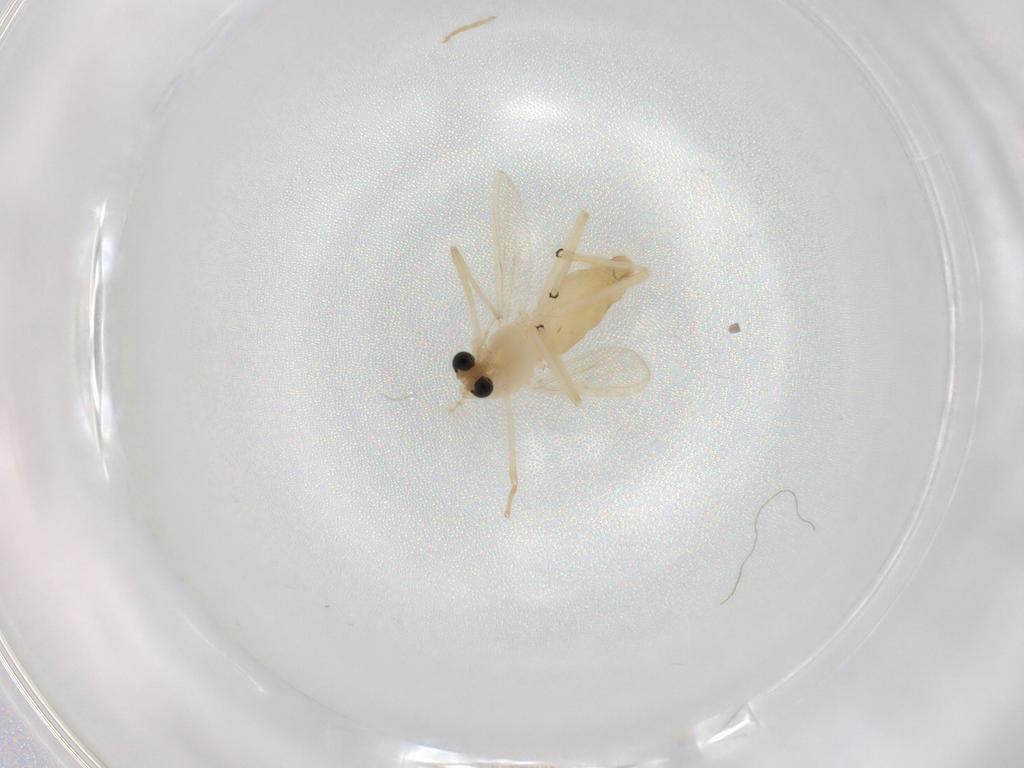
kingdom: Animalia
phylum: Arthropoda
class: Insecta
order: Diptera
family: Chironomidae
